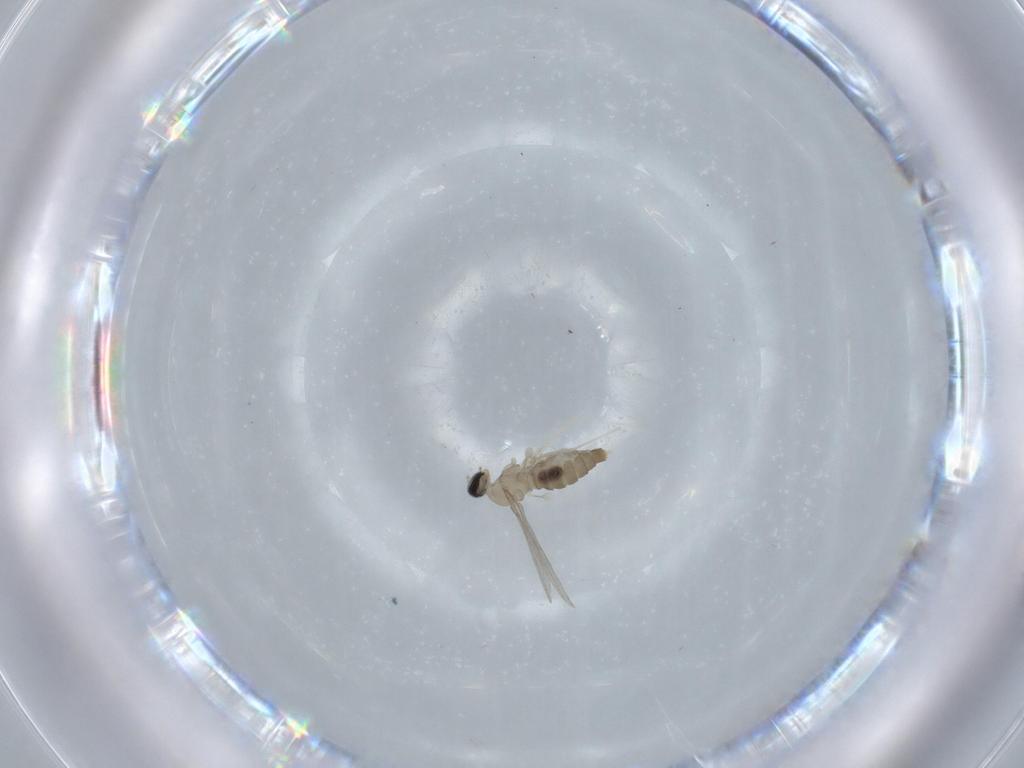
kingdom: Animalia
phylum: Arthropoda
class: Insecta
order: Diptera
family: Cecidomyiidae
